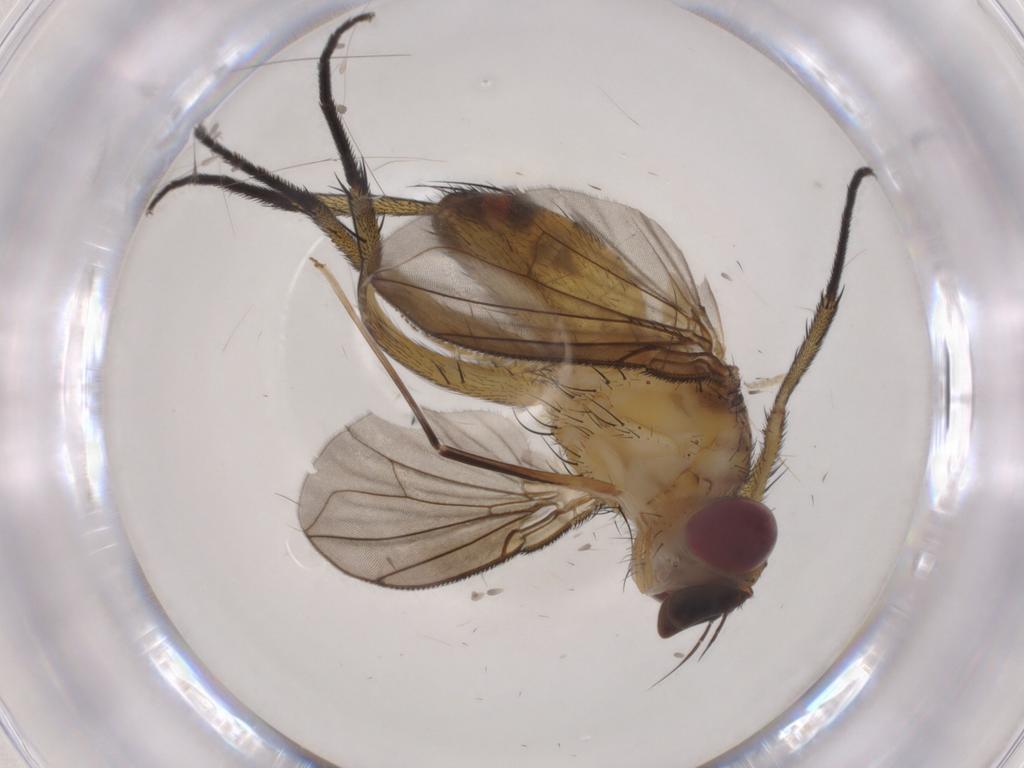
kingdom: Animalia
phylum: Arthropoda
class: Insecta
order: Diptera
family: Tachinidae
